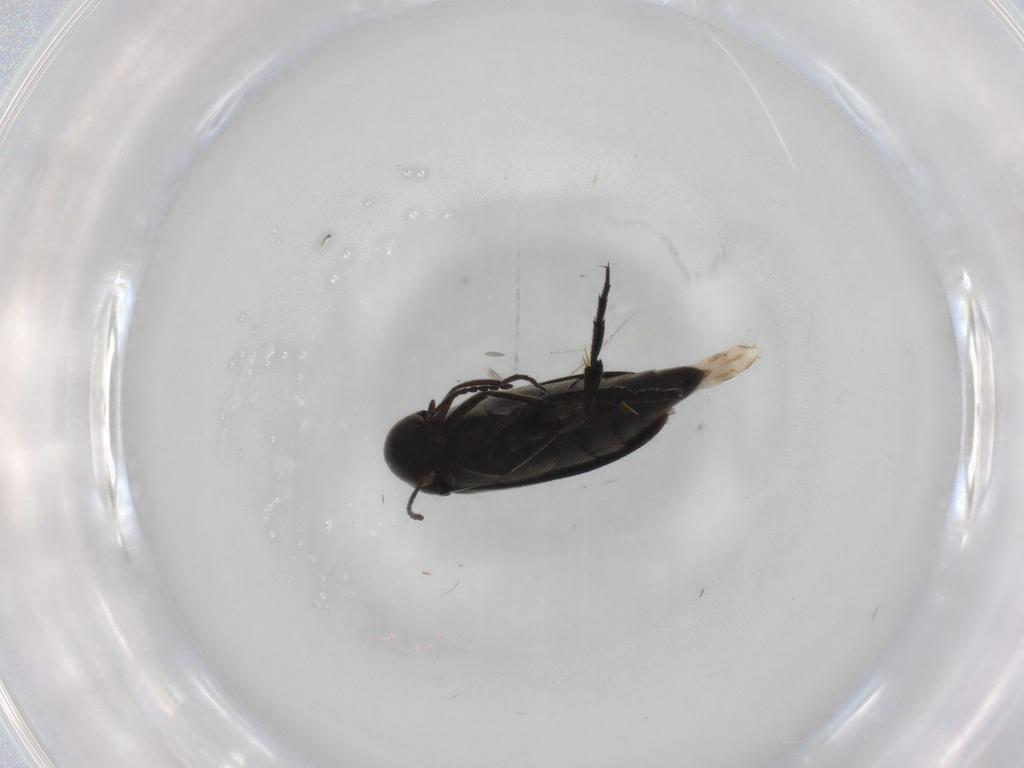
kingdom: Animalia
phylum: Arthropoda
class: Insecta
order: Coleoptera
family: Mordellidae
